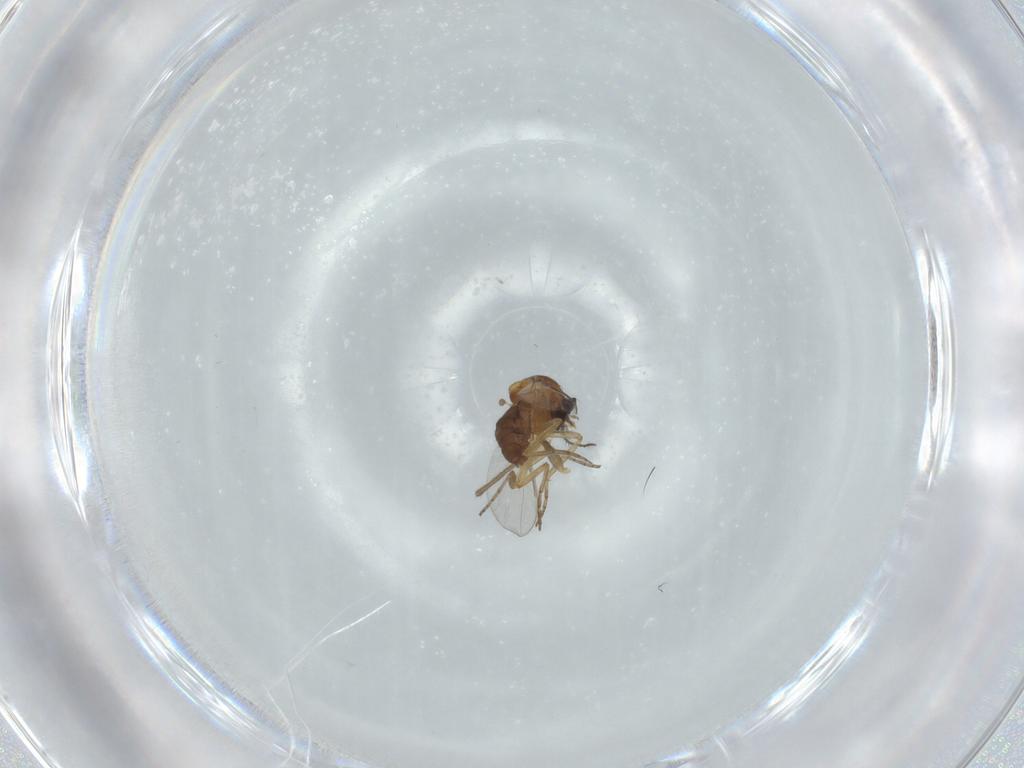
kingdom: Animalia
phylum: Arthropoda
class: Insecta
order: Diptera
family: Ceratopogonidae
